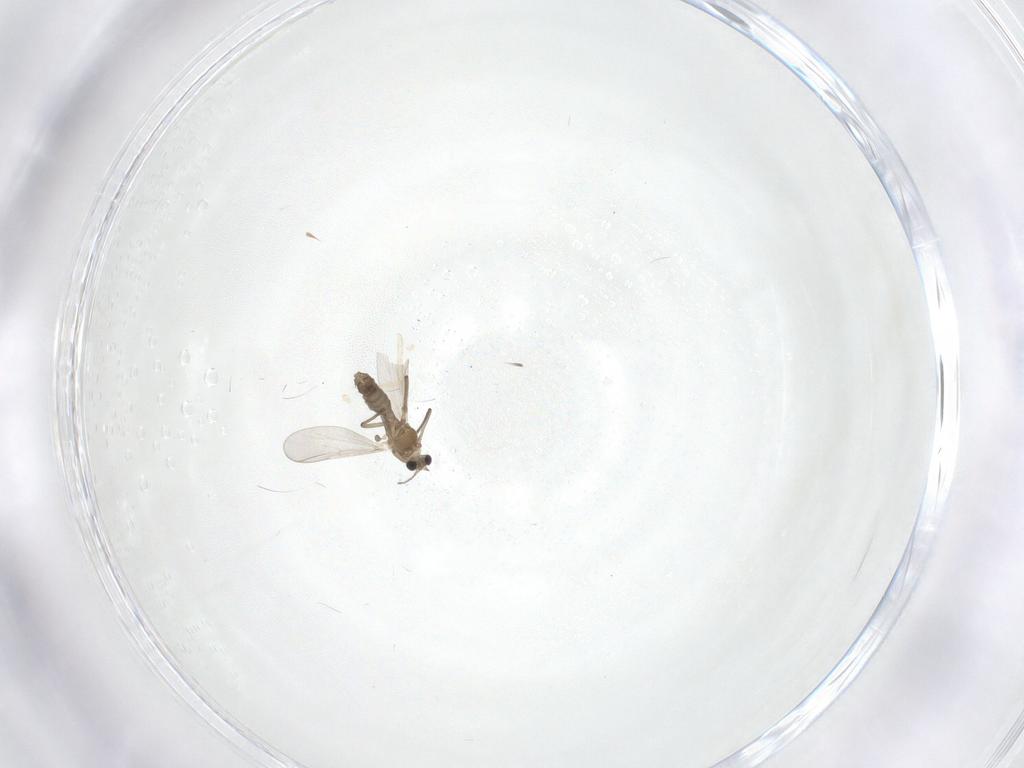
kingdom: Animalia
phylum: Arthropoda
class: Insecta
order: Diptera
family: Chironomidae
